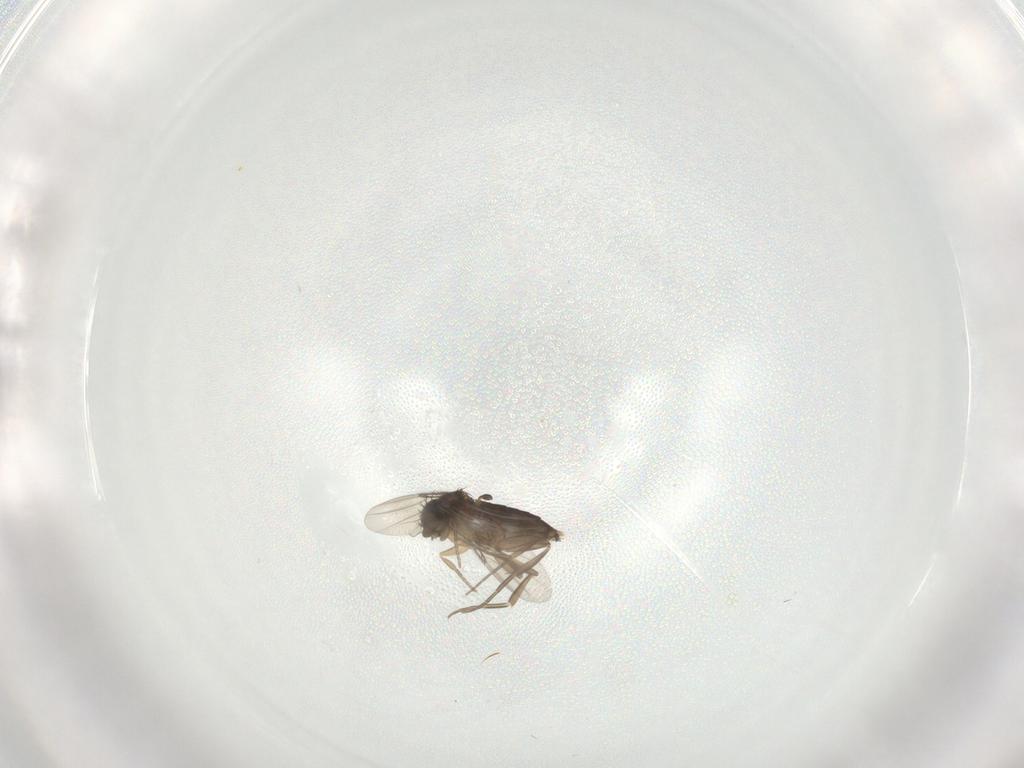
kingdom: Animalia
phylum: Arthropoda
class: Insecta
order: Diptera
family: Phoridae
